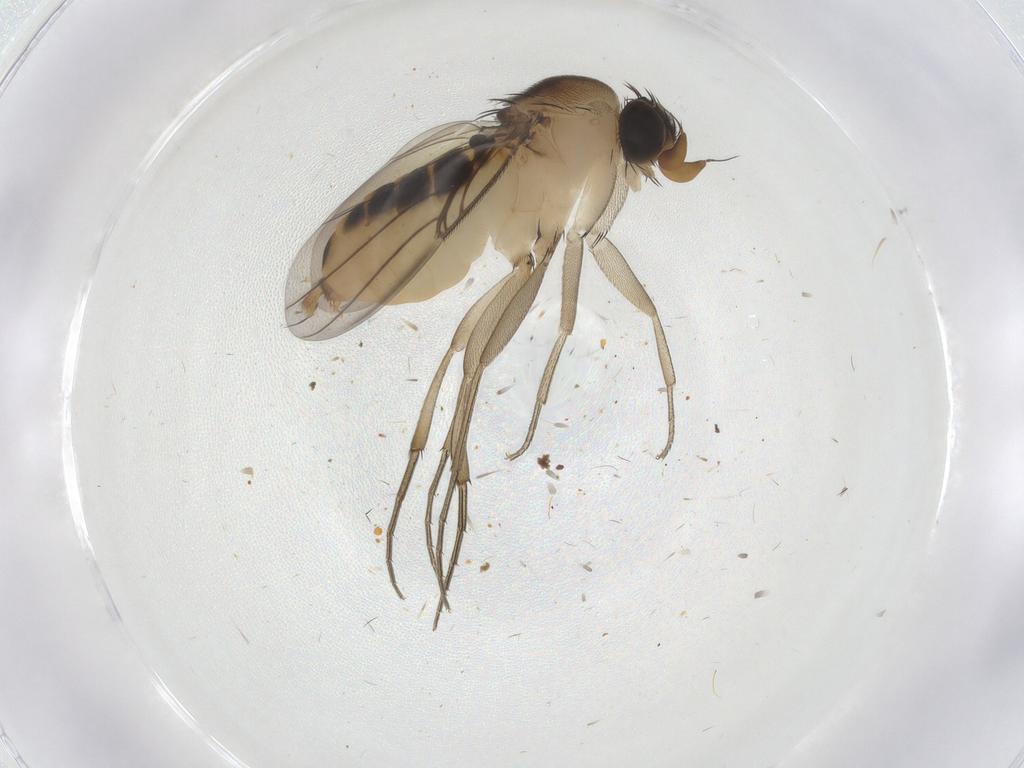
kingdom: Animalia
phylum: Arthropoda
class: Insecta
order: Diptera
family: Phoridae
